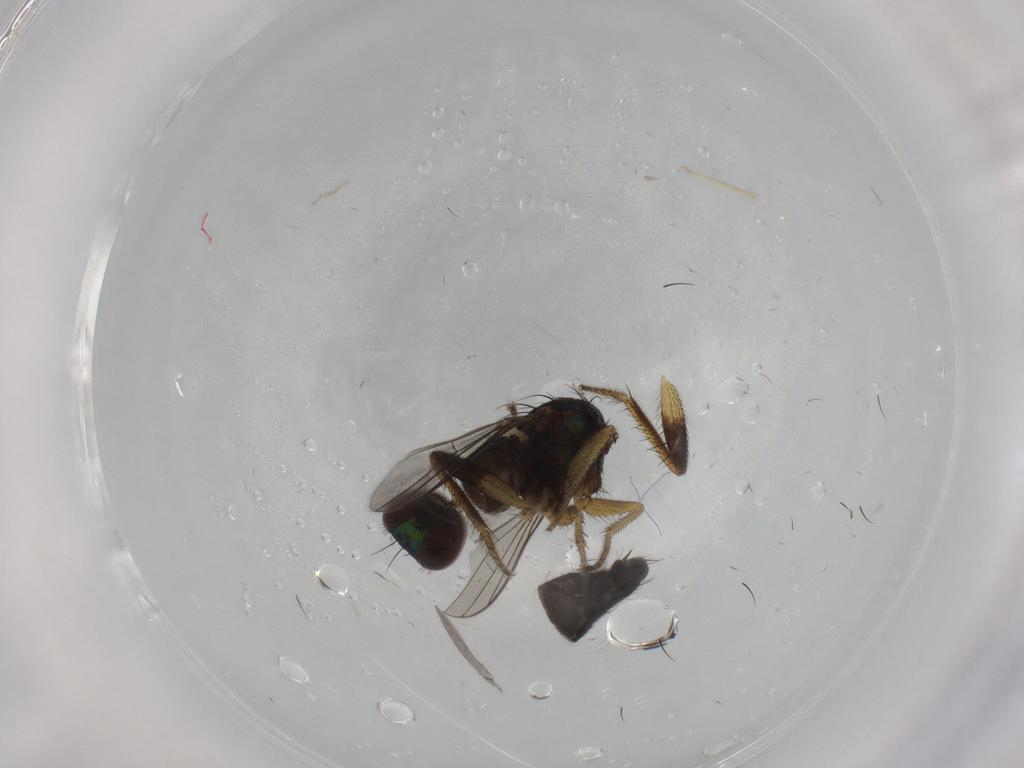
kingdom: Animalia
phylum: Arthropoda
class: Insecta
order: Diptera
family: Dolichopodidae
